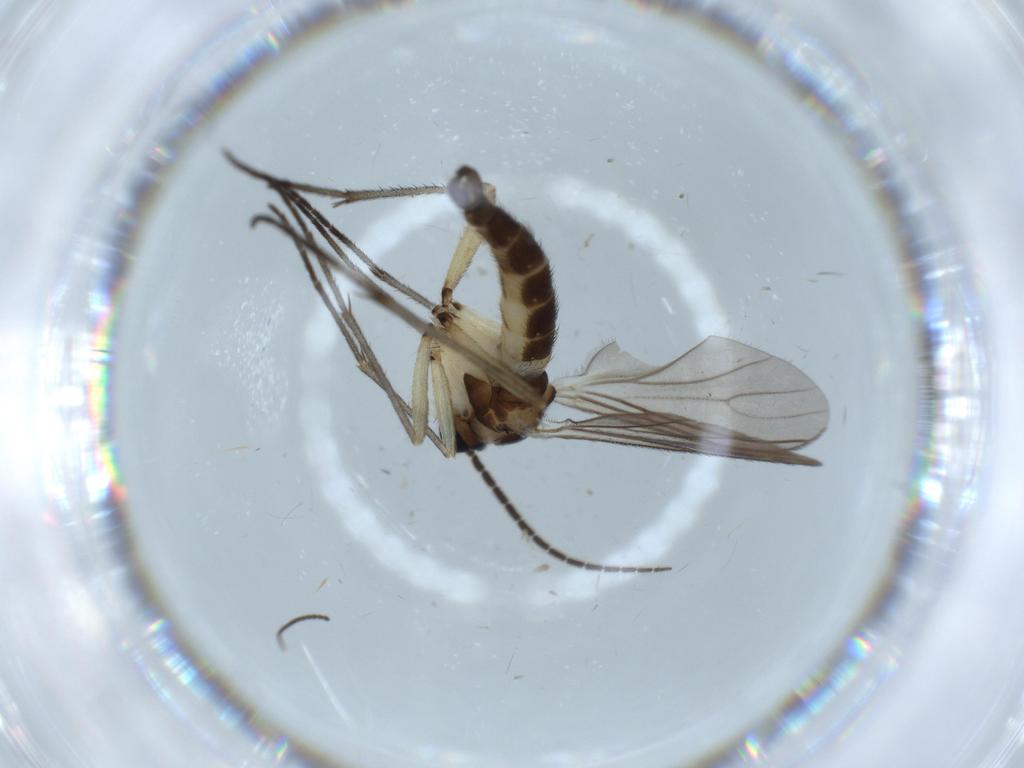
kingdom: Animalia
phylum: Arthropoda
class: Insecta
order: Diptera
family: Sciaridae
